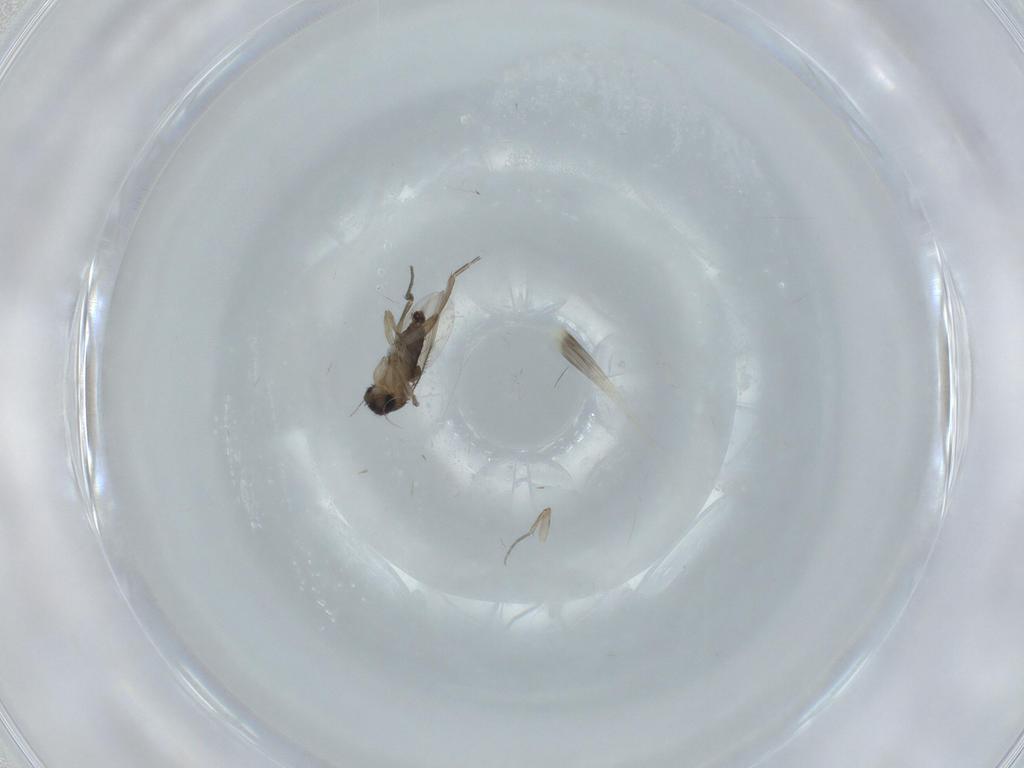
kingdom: Animalia
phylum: Arthropoda
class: Insecta
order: Diptera
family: Phoridae
